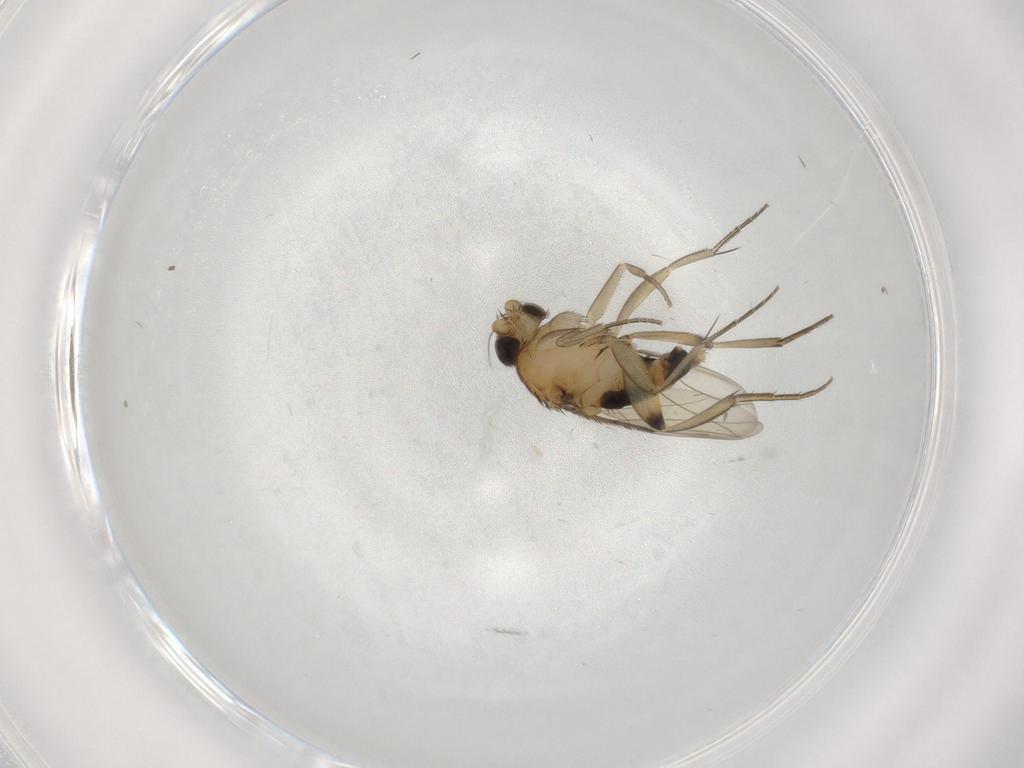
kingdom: Animalia
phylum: Arthropoda
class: Insecta
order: Diptera
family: Phoridae
